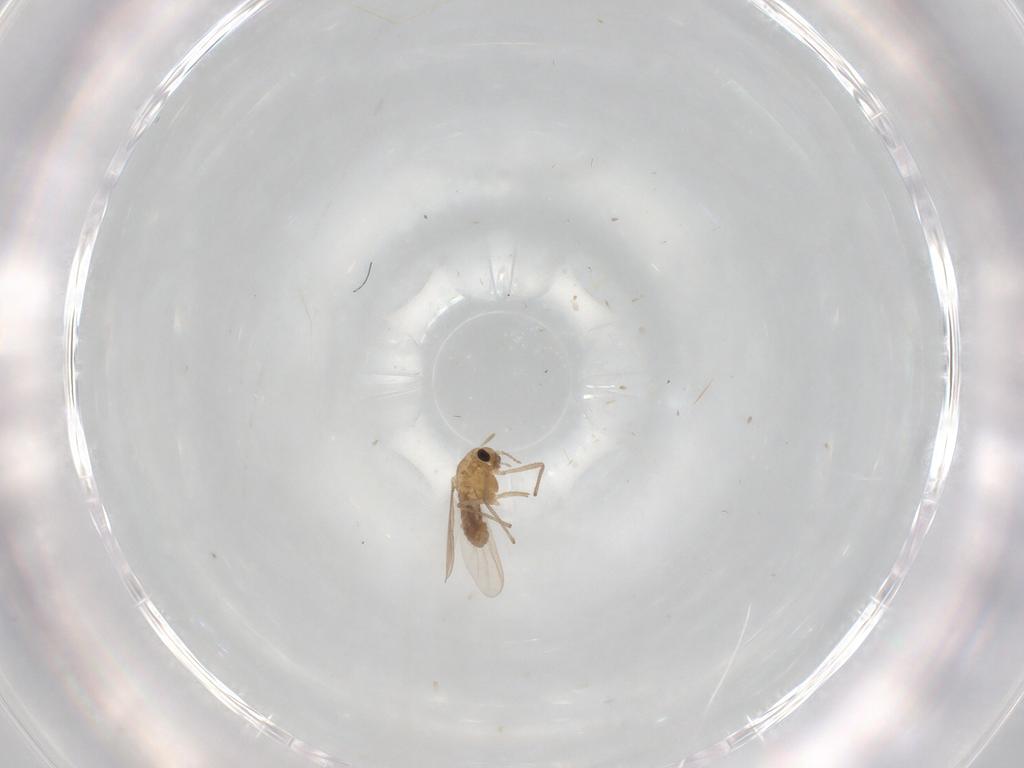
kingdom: Animalia
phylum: Arthropoda
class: Insecta
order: Diptera
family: Chironomidae
